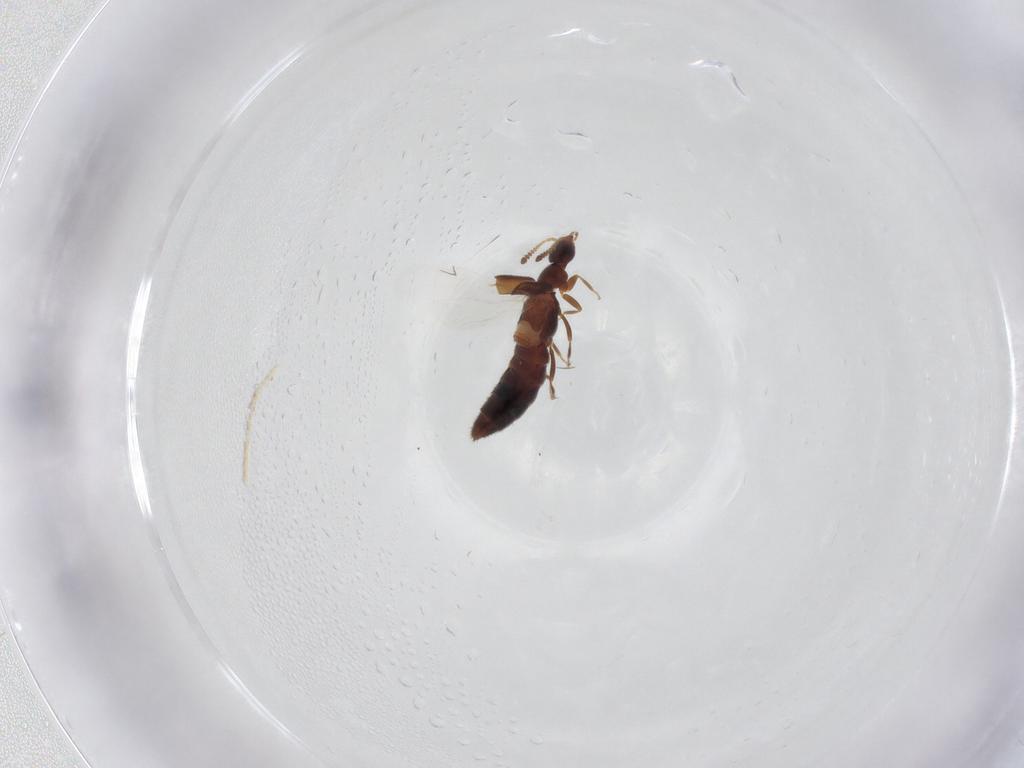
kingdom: Animalia
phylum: Arthropoda
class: Insecta
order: Coleoptera
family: Staphylinidae
